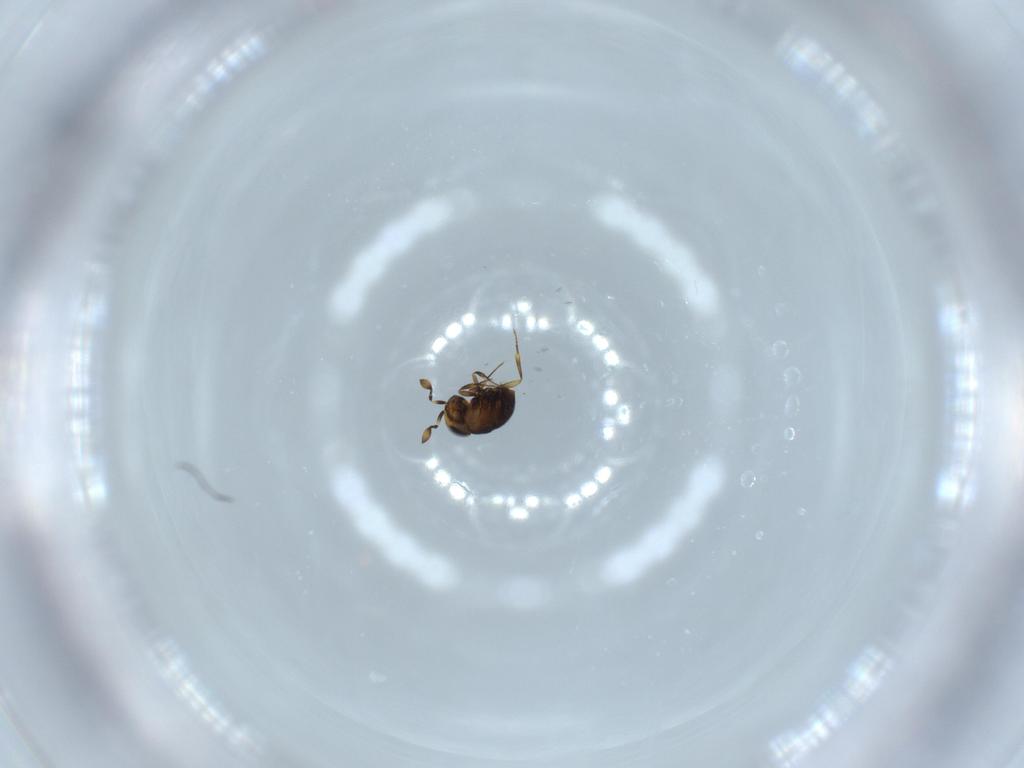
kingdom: Animalia
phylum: Arthropoda
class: Insecta
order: Hymenoptera
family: Scelionidae
